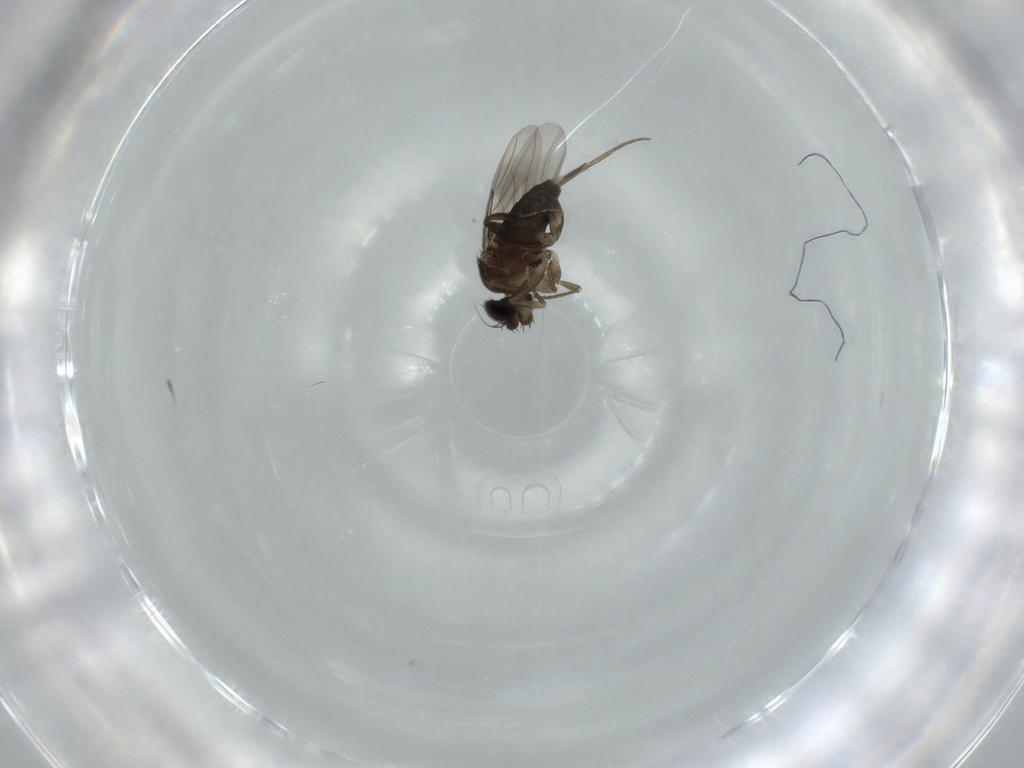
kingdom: Animalia
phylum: Arthropoda
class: Insecta
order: Diptera
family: Phoridae
